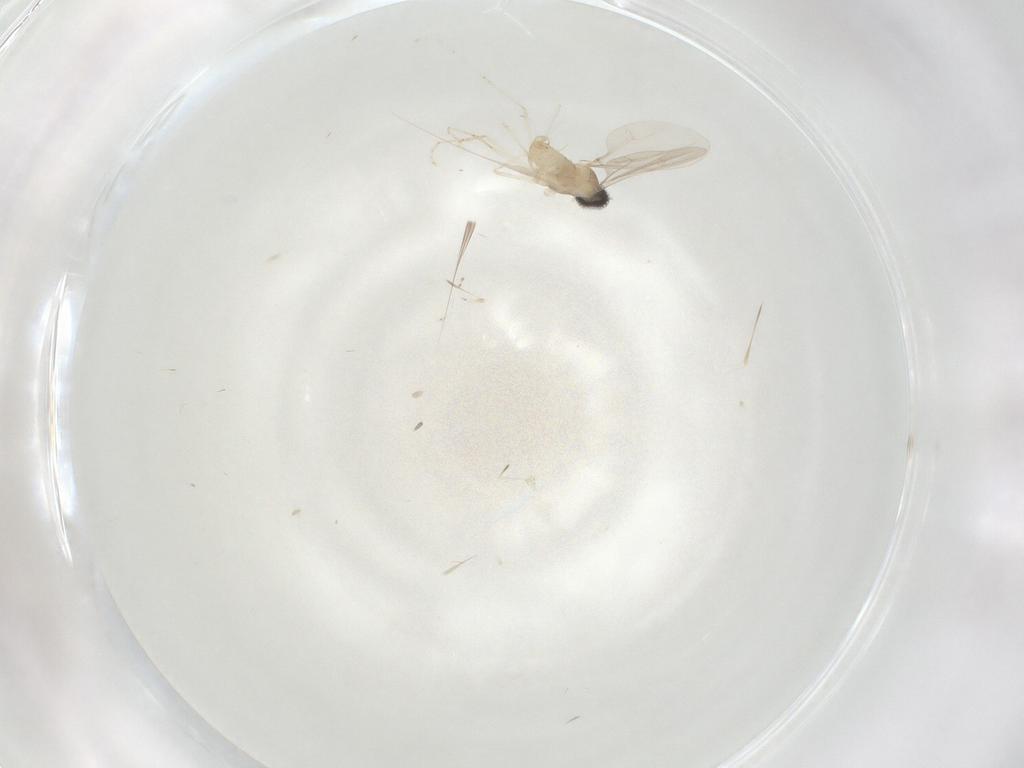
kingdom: Animalia
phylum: Arthropoda
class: Insecta
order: Diptera
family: Cecidomyiidae
